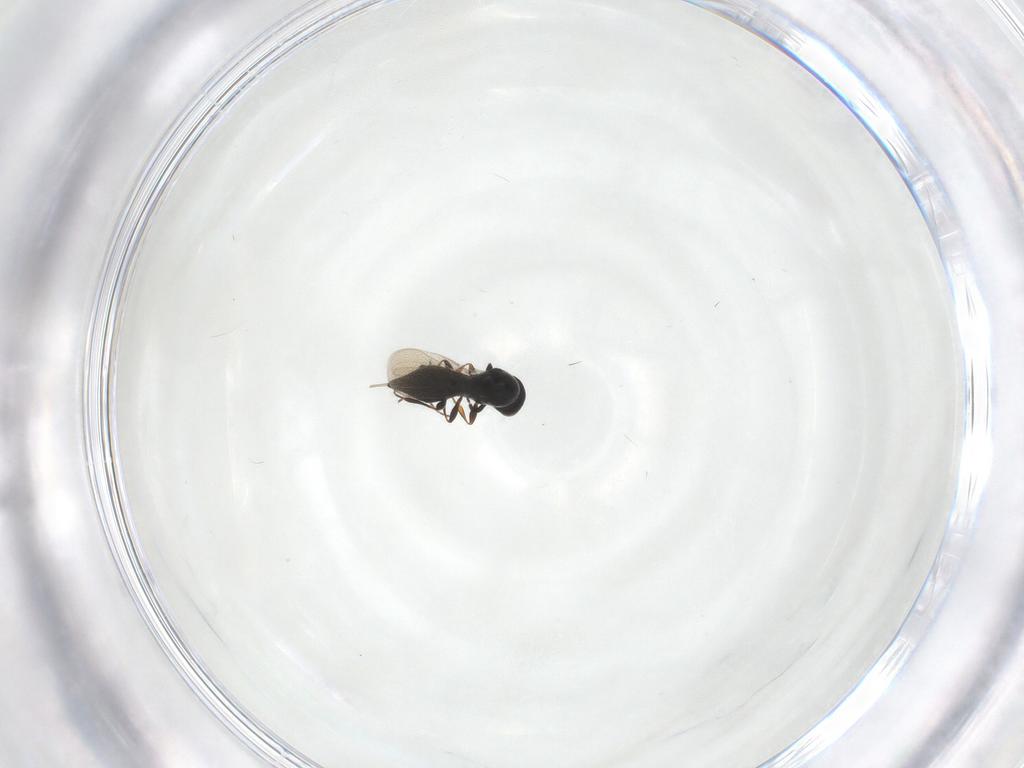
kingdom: Animalia
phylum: Arthropoda
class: Insecta
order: Hymenoptera
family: Platygastridae
